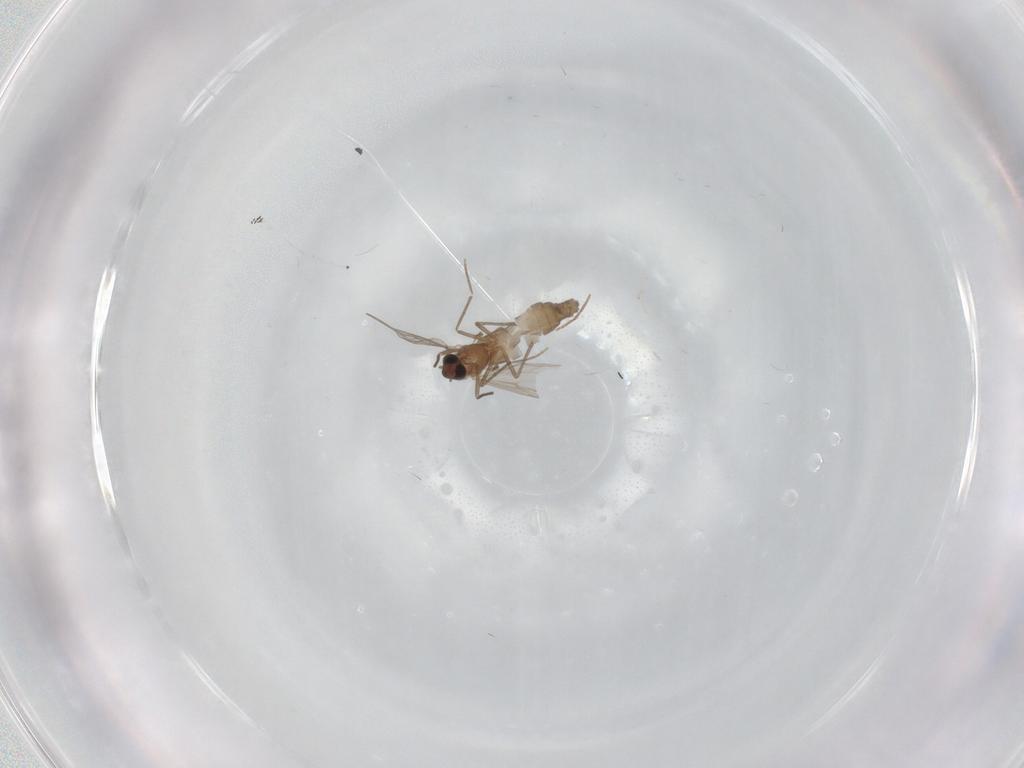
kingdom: Animalia
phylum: Arthropoda
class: Insecta
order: Diptera
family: Chironomidae
